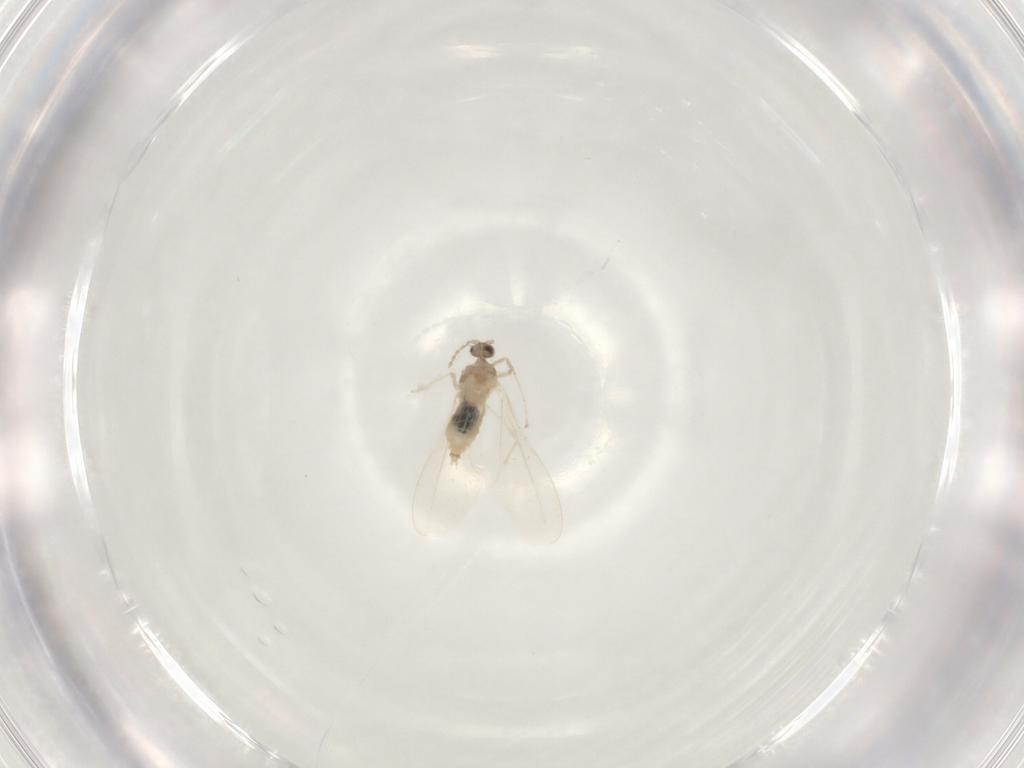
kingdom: Animalia
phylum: Arthropoda
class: Insecta
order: Diptera
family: Cecidomyiidae
